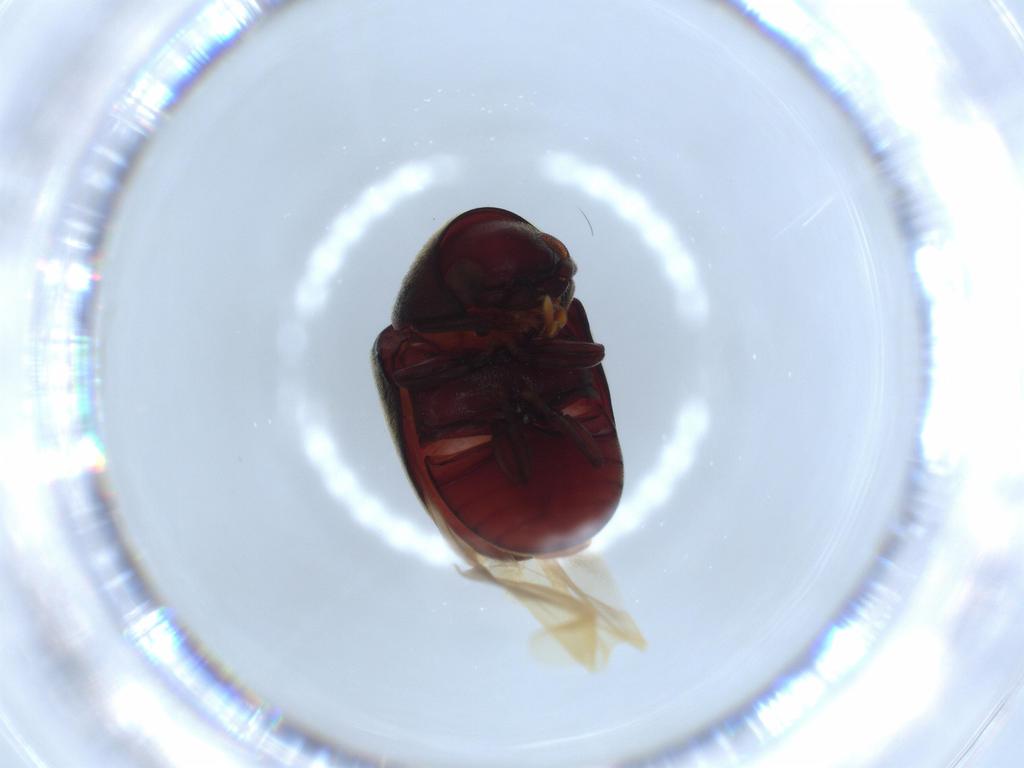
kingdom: Animalia
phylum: Arthropoda
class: Insecta
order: Coleoptera
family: Ptinidae
